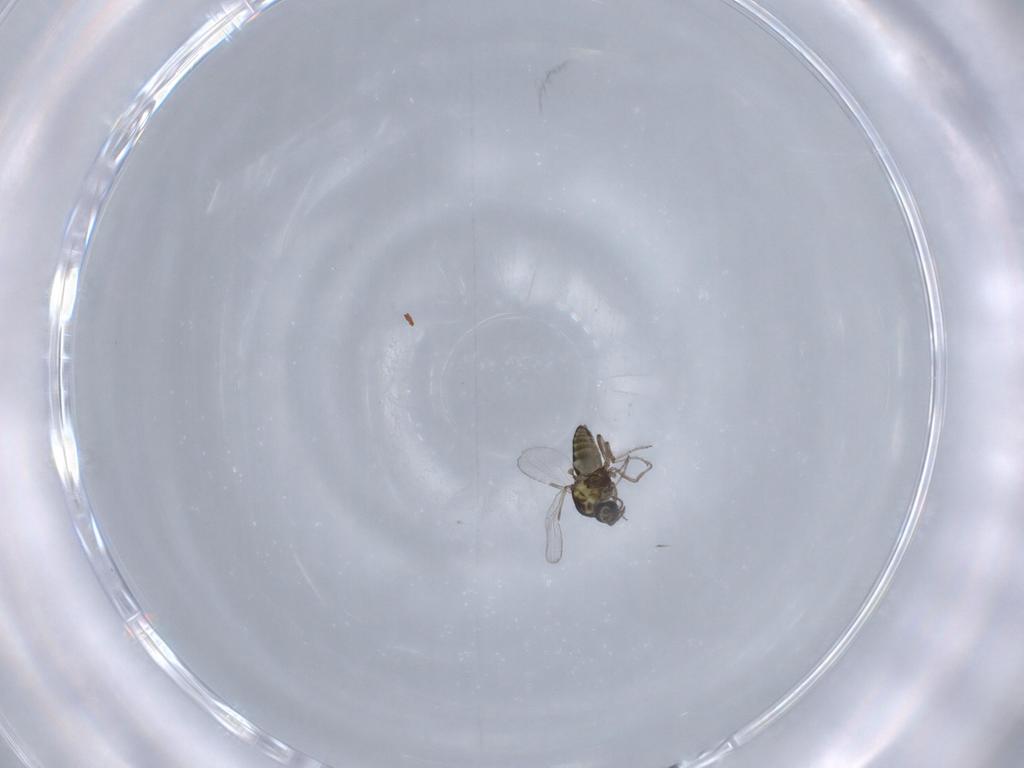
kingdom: Animalia
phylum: Arthropoda
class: Insecta
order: Diptera
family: Ceratopogonidae
